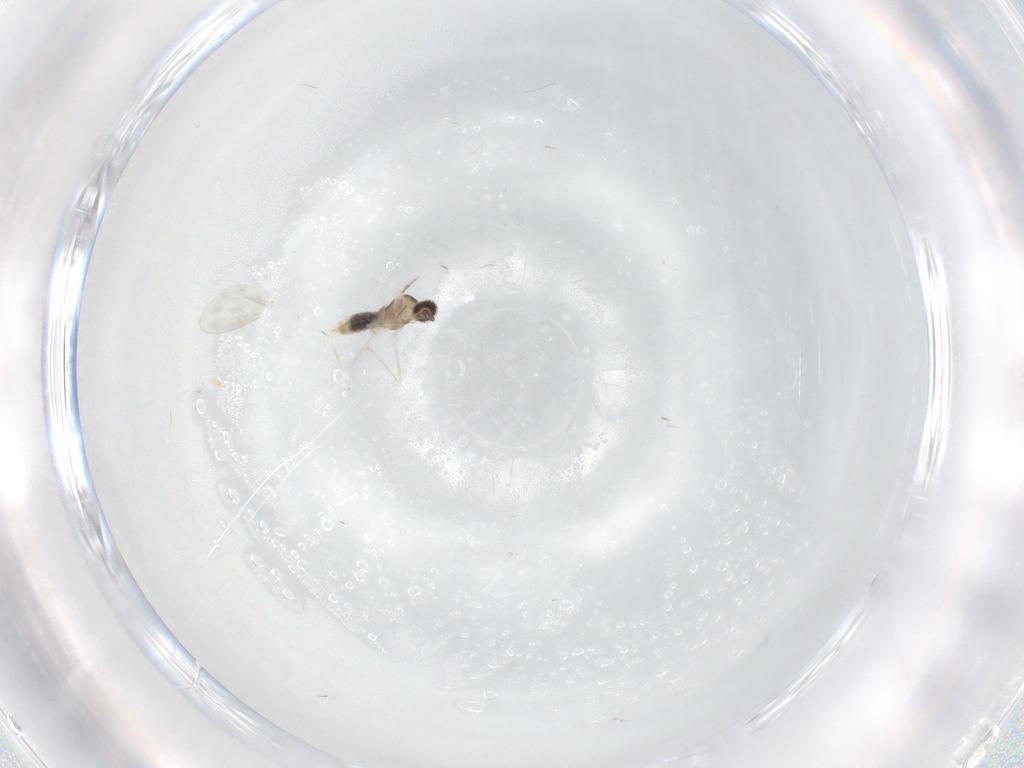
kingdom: Animalia
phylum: Arthropoda
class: Insecta
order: Diptera
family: Cecidomyiidae
